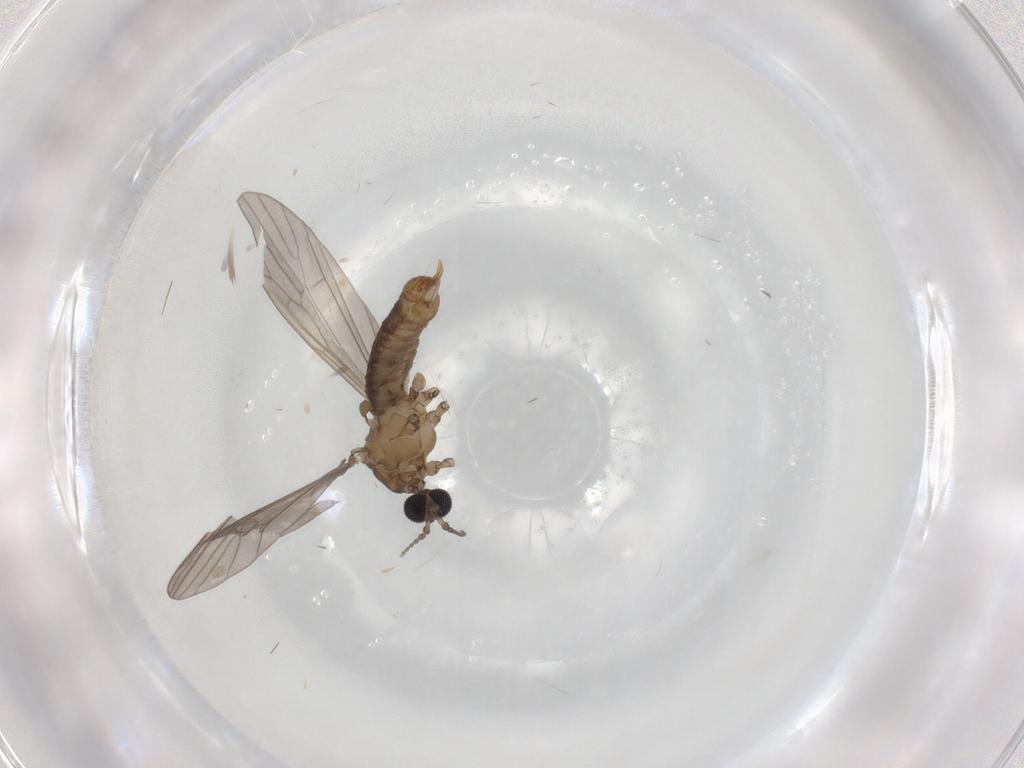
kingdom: Animalia
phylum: Arthropoda
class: Insecta
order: Diptera
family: Limoniidae
